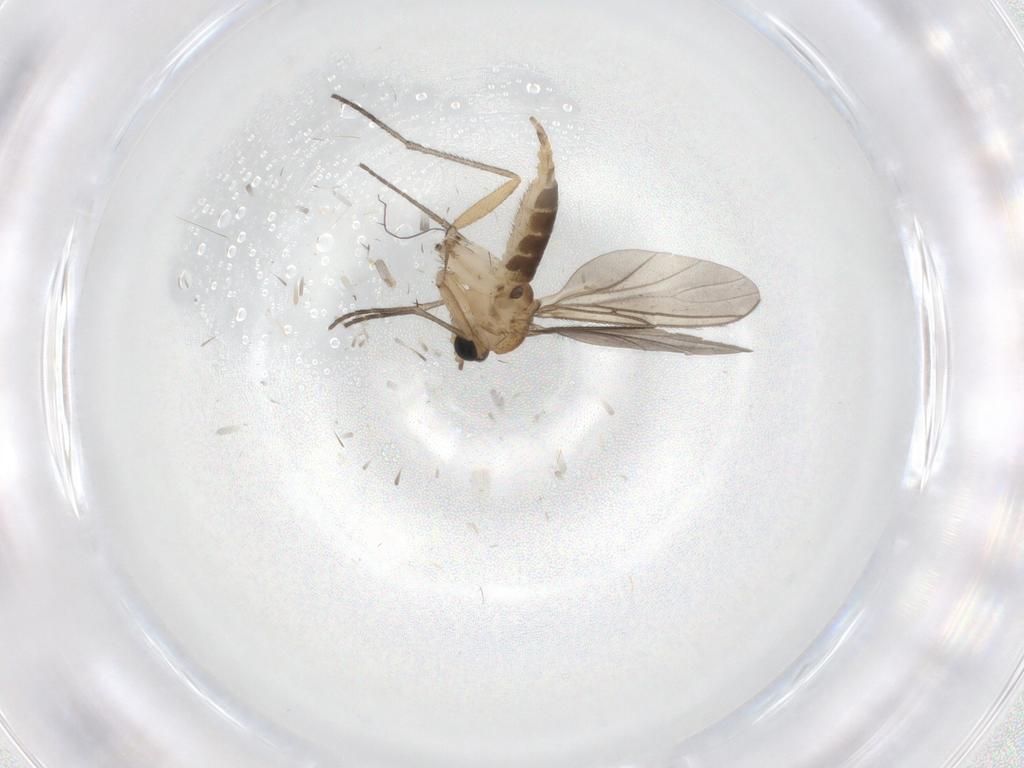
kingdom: Animalia
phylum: Arthropoda
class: Insecta
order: Diptera
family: Sciaridae
